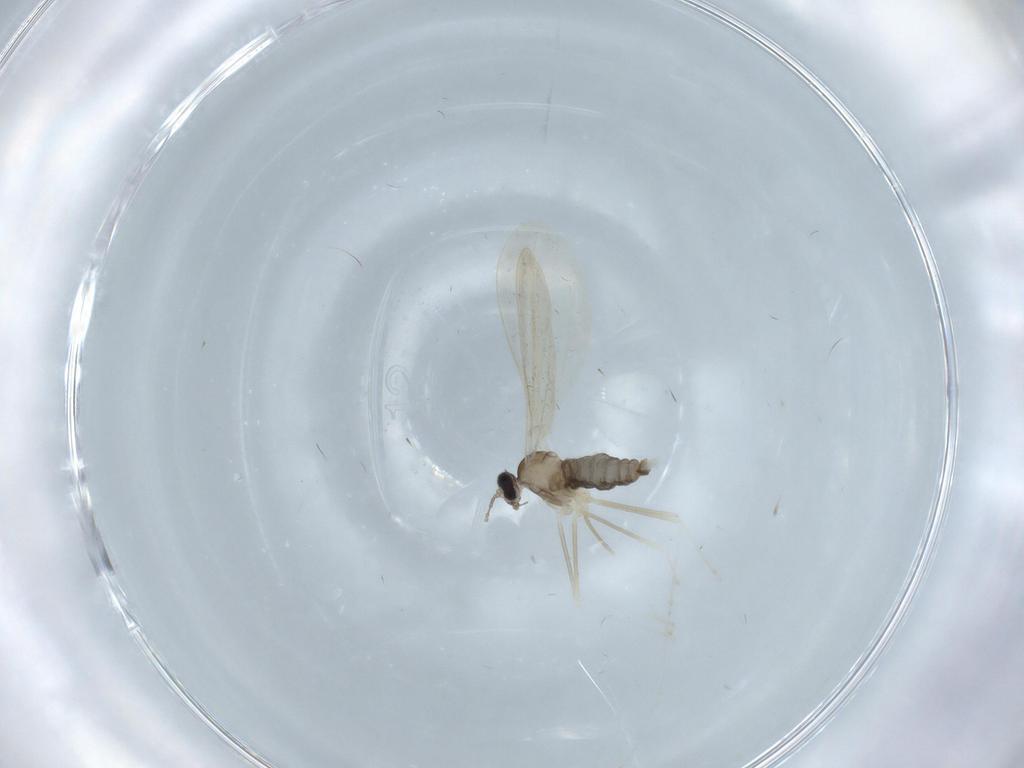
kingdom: Animalia
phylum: Arthropoda
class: Insecta
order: Diptera
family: Cecidomyiidae
